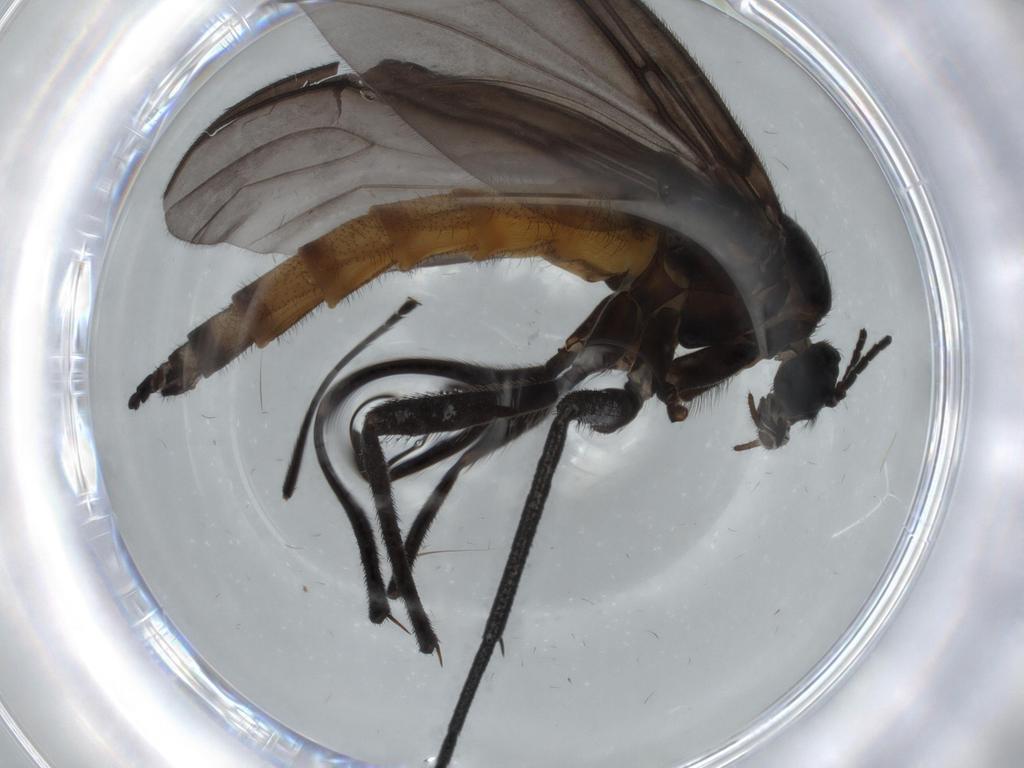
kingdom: Animalia
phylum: Arthropoda
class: Insecta
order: Diptera
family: Sciaridae
